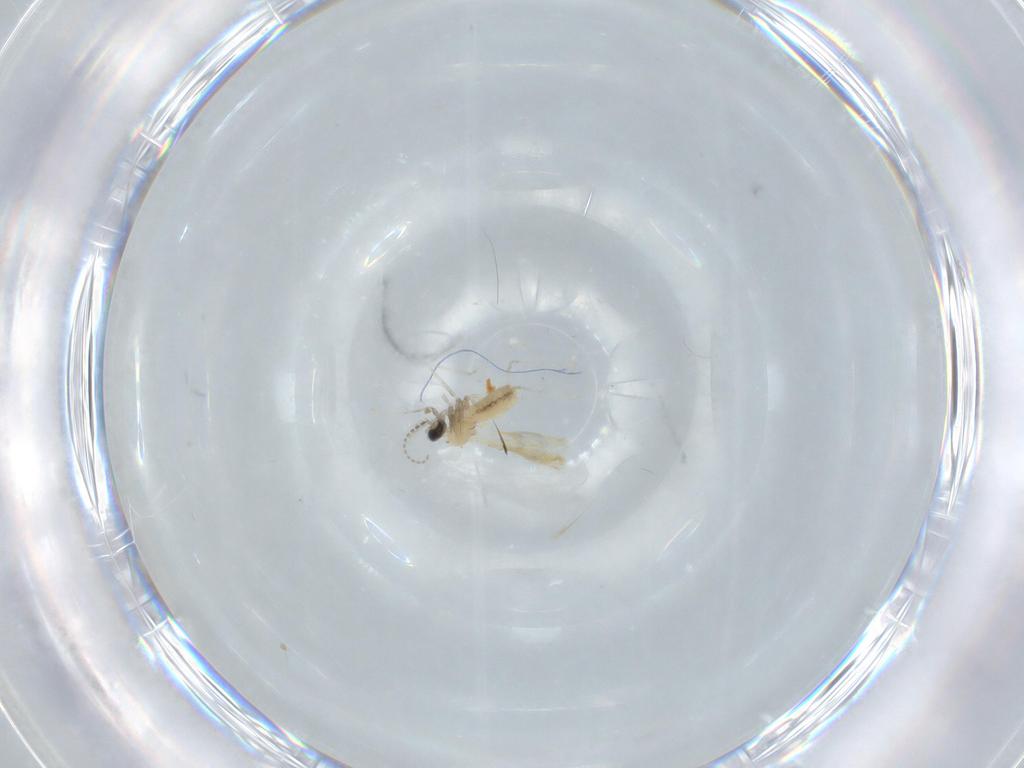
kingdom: Animalia
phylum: Arthropoda
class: Insecta
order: Diptera
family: Cecidomyiidae
